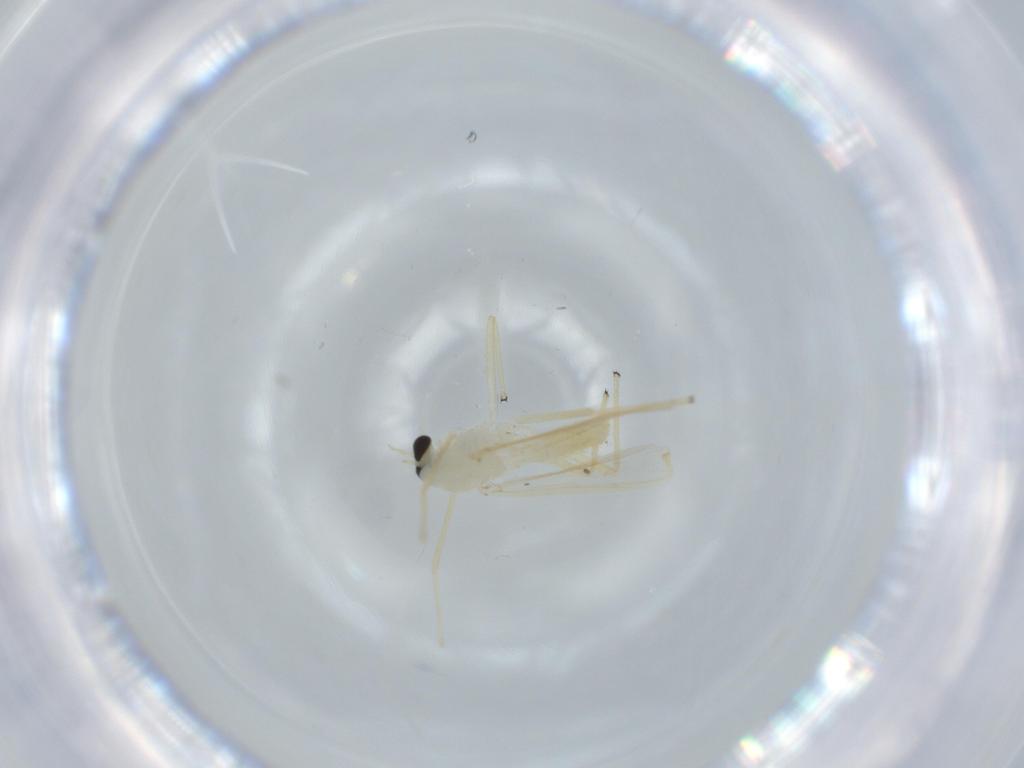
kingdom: Animalia
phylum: Arthropoda
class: Insecta
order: Diptera
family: Chironomidae
